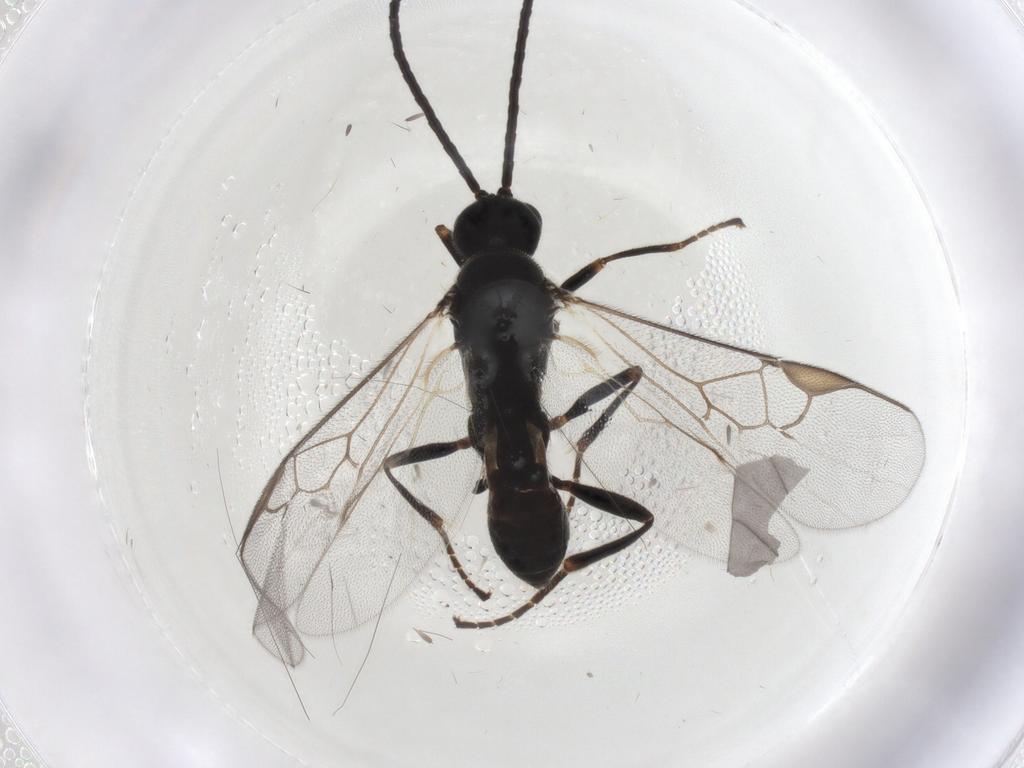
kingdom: Animalia
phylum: Arthropoda
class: Insecta
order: Hymenoptera
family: Braconidae
